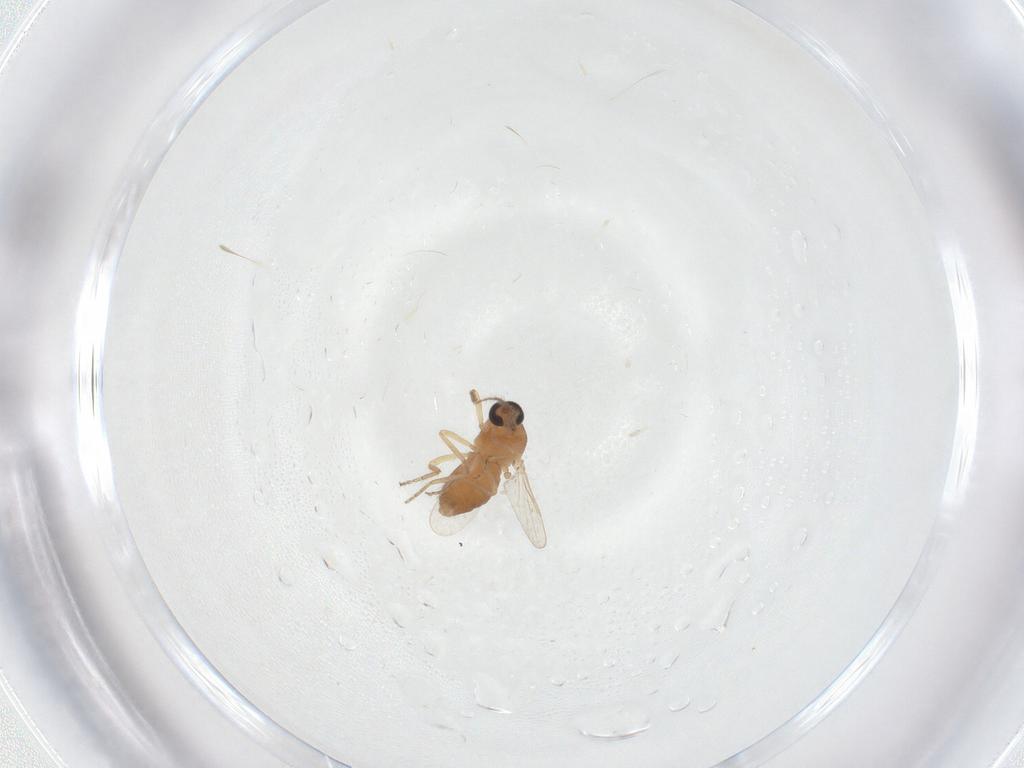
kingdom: Animalia
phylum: Arthropoda
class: Insecta
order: Diptera
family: Ceratopogonidae
